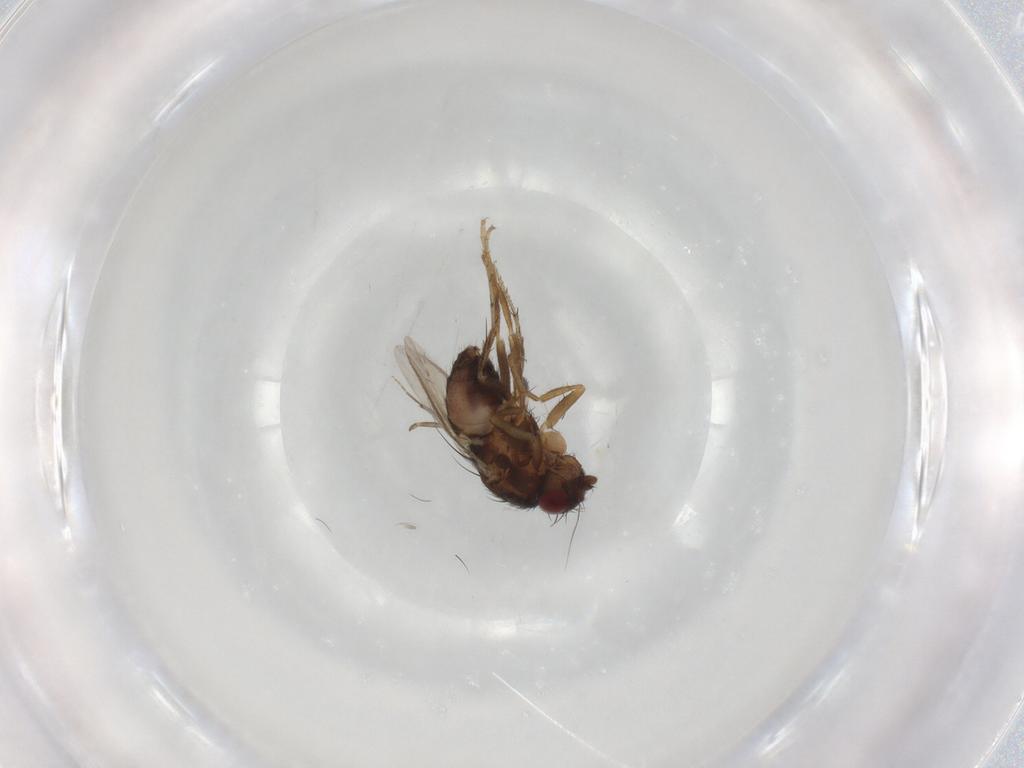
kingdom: Animalia
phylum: Arthropoda
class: Insecta
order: Diptera
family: Sphaeroceridae
